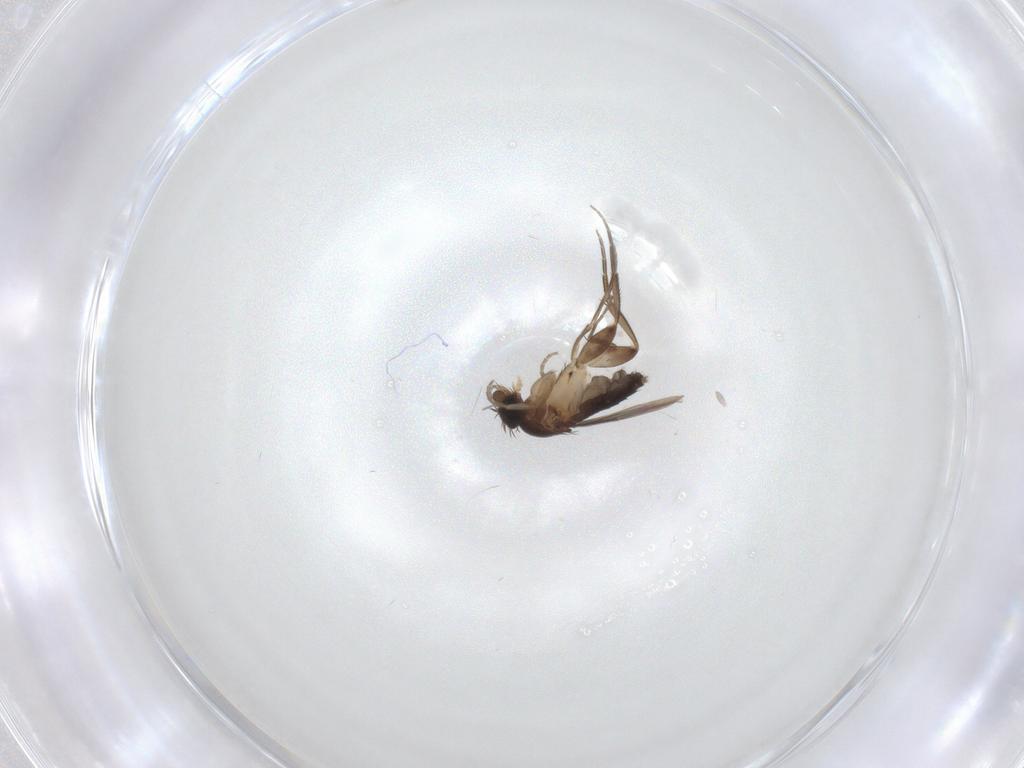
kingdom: Animalia
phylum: Arthropoda
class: Insecta
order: Diptera
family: Phoridae
